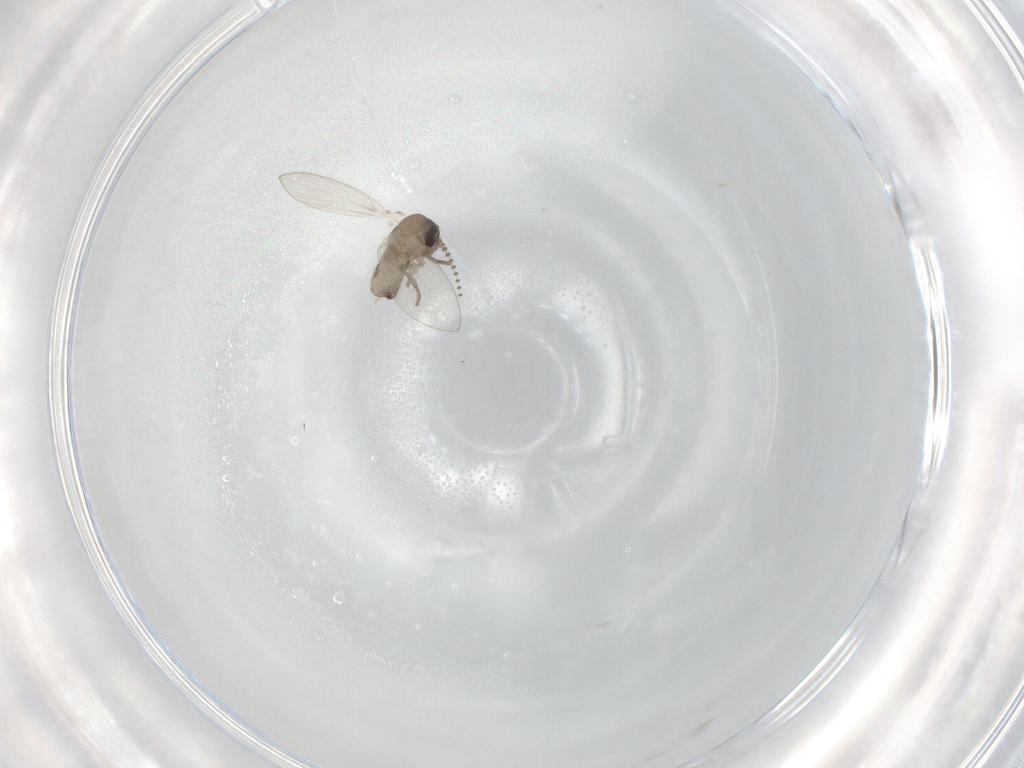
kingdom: Animalia
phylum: Arthropoda
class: Insecta
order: Diptera
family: Psychodidae
